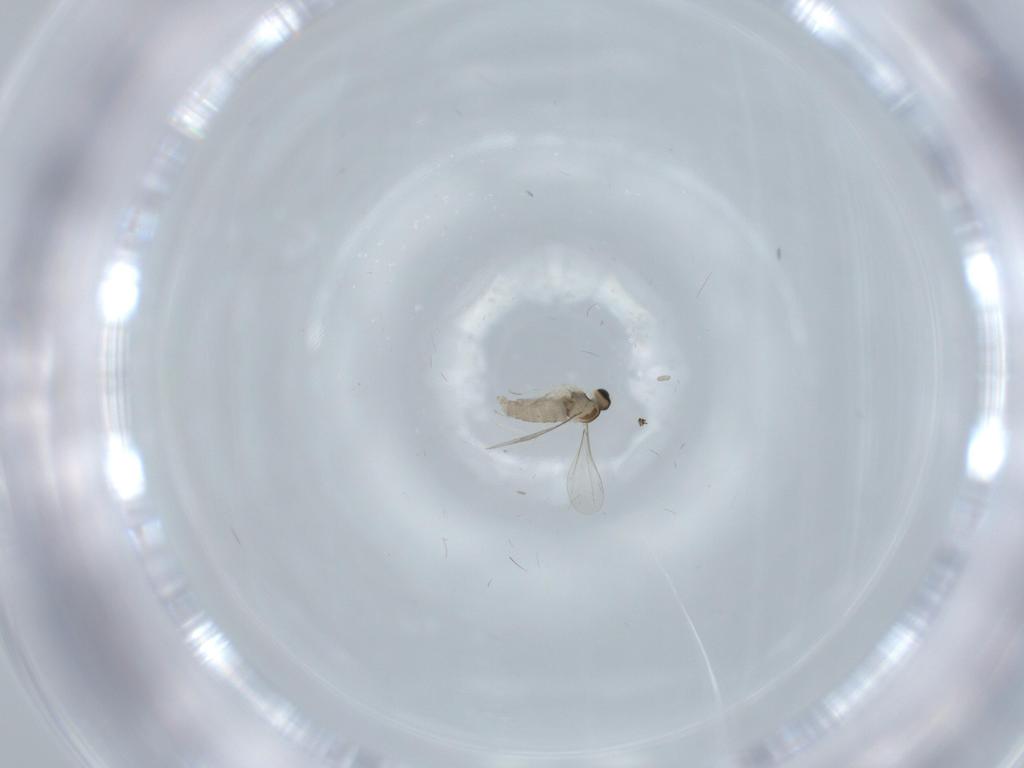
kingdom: Animalia
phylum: Arthropoda
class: Insecta
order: Diptera
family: Cecidomyiidae
